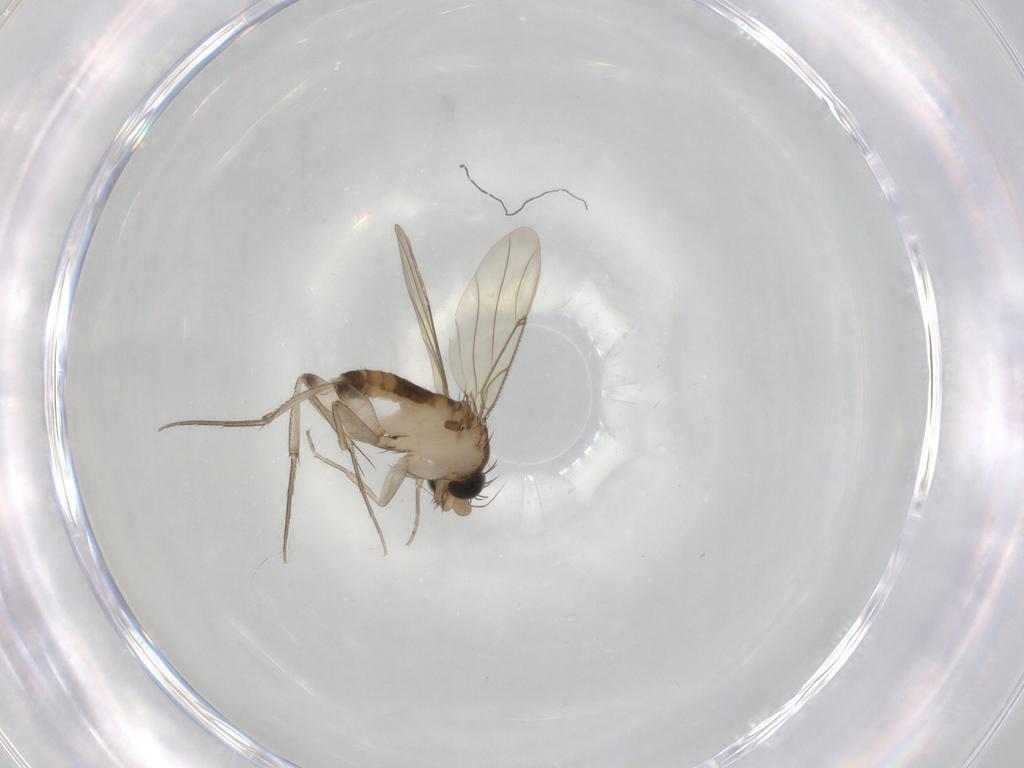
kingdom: Animalia
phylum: Arthropoda
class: Insecta
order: Diptera
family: Phoridae
